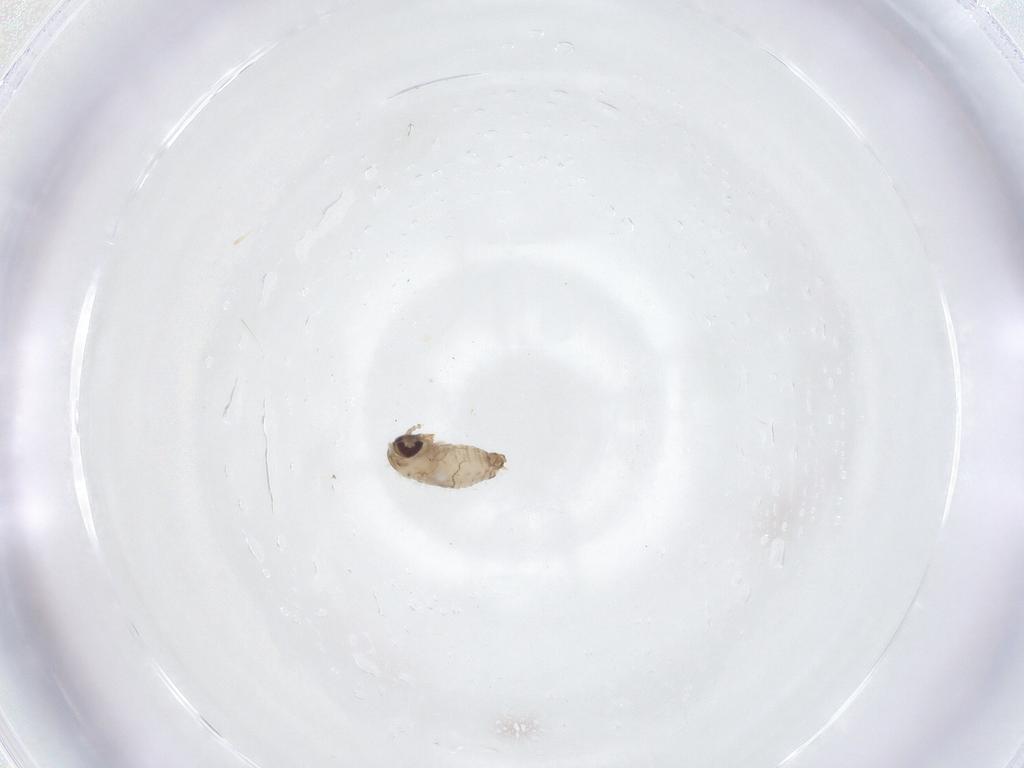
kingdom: Animalia
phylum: Arthropoda
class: Insecta
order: Diptera
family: Psychodidae
